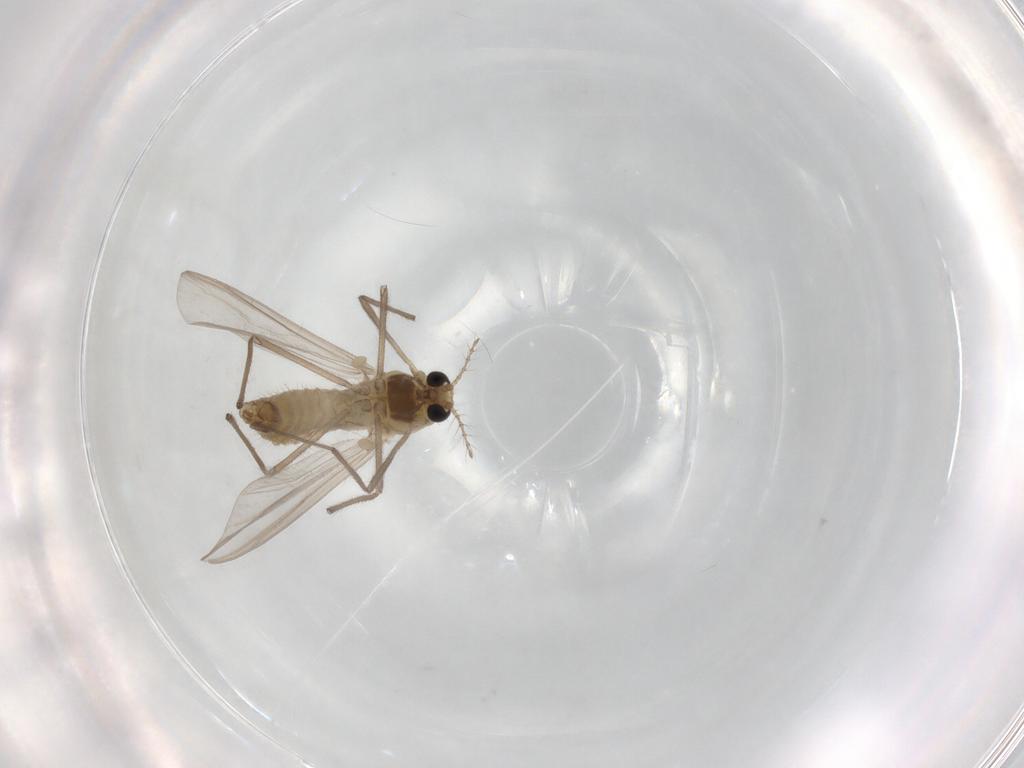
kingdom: Animalia
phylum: Arthropoda
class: Insecta
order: Diptera
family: Chironomidae
